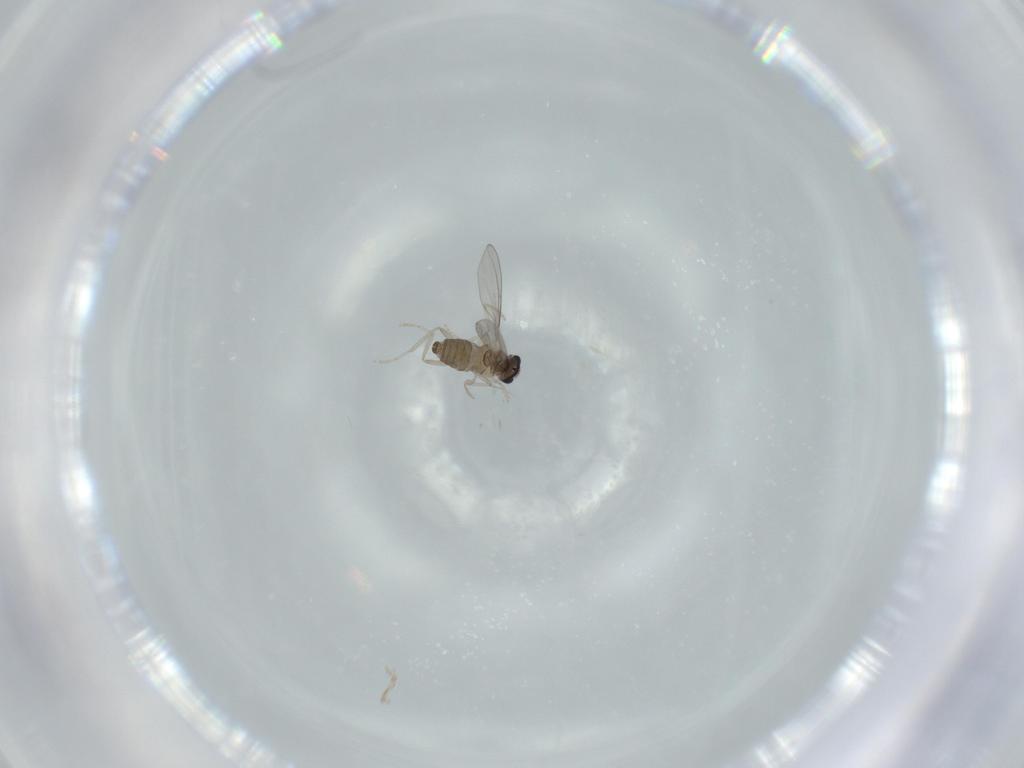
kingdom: Animalia
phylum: Arthropoda
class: Insecta
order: Diptera
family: Cecidomyiidae
